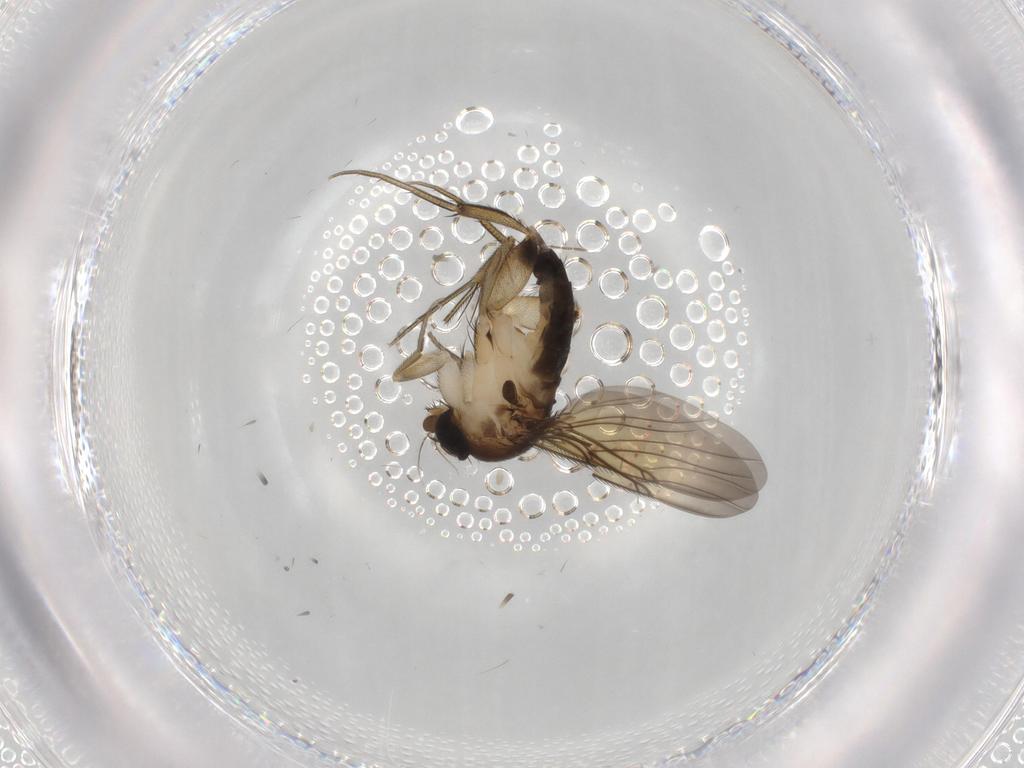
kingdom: Animalia
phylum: Arthropoda
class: Insecta
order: Diptera
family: Phoridae
